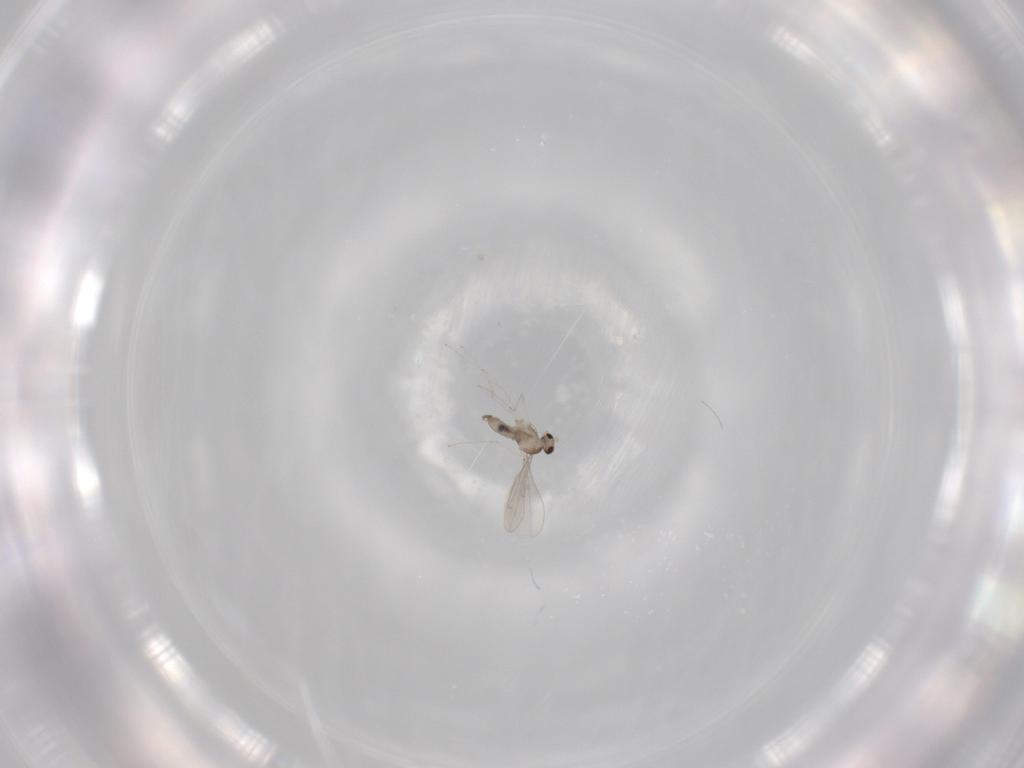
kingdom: Animalia
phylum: Arthropoda
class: Insecta
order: Diptera
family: Cecidomyiidae
